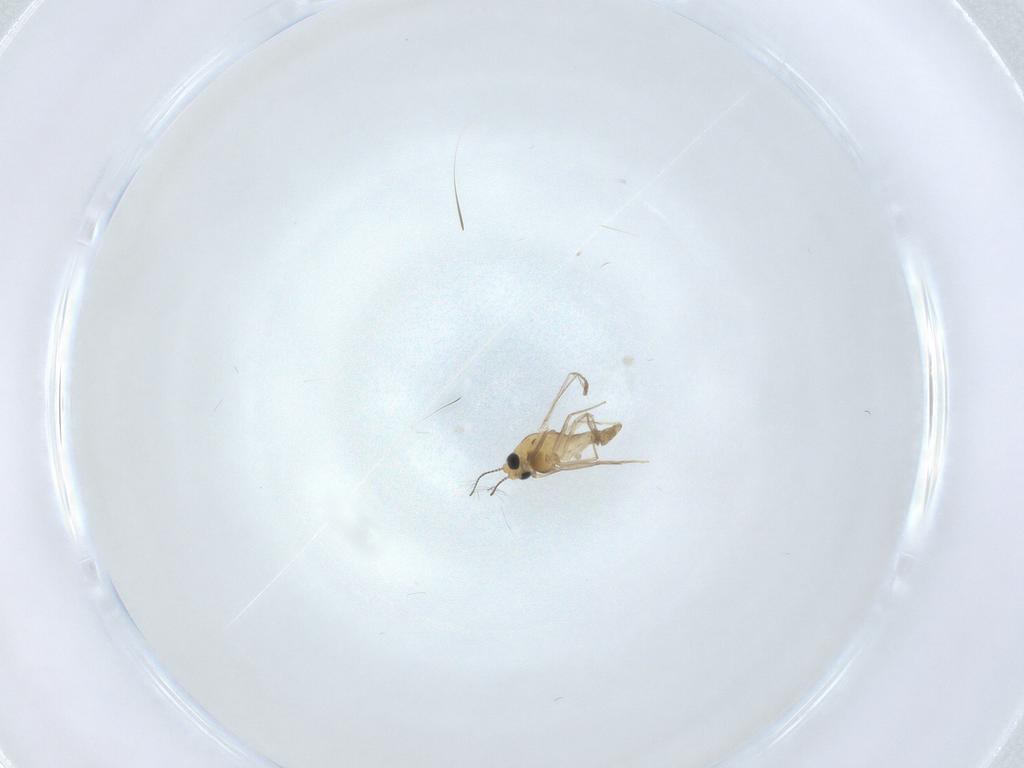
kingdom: Animalia
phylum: Arthropoda
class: Insecta
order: Diptera
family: Chironomidae
